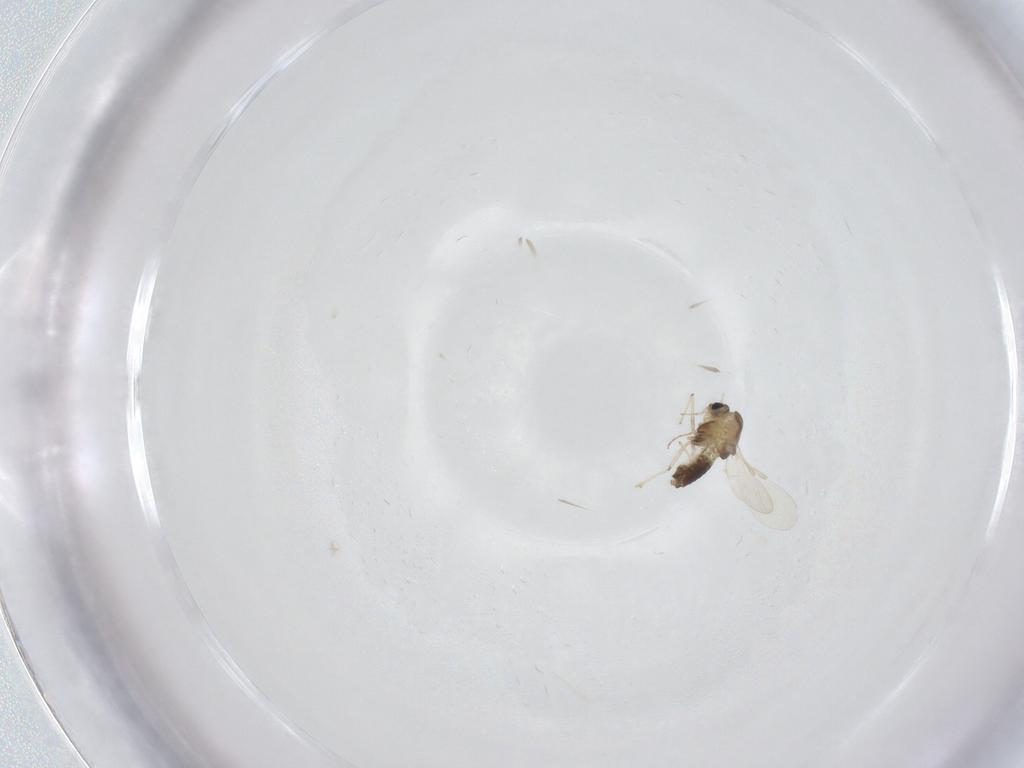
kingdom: Animalia
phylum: Arthropoda
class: Insecta
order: Diptera
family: Chironomidae
